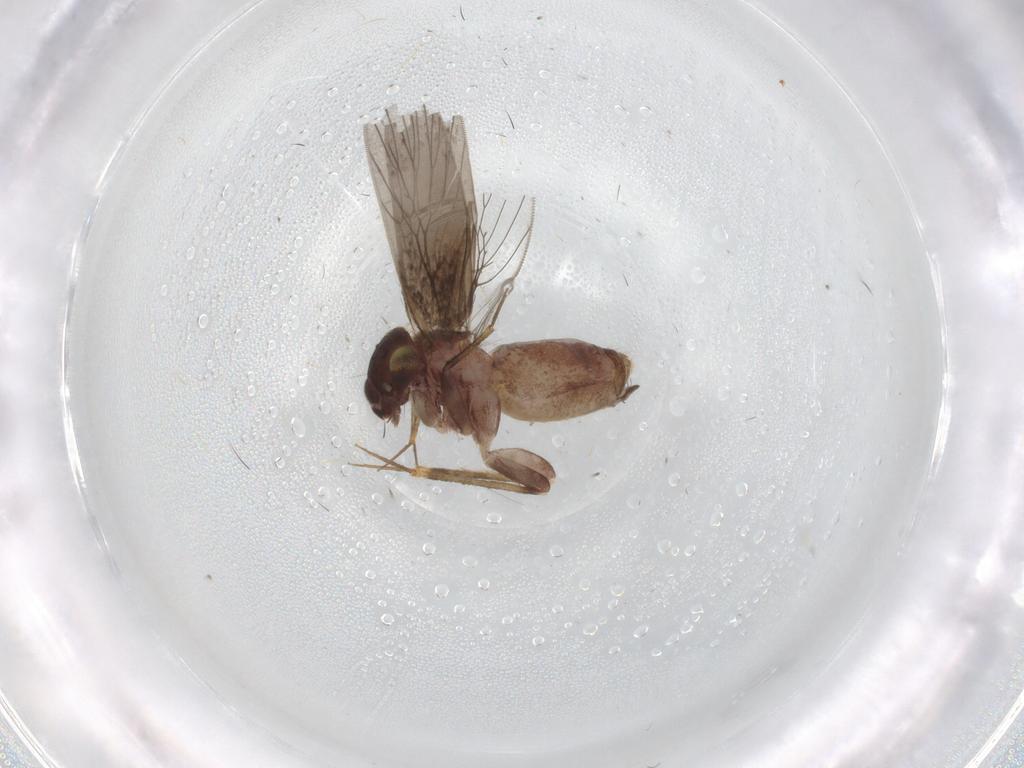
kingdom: Animalia
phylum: Arthropoda
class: Insecta
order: Psocodea
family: Lepidopsocidae
